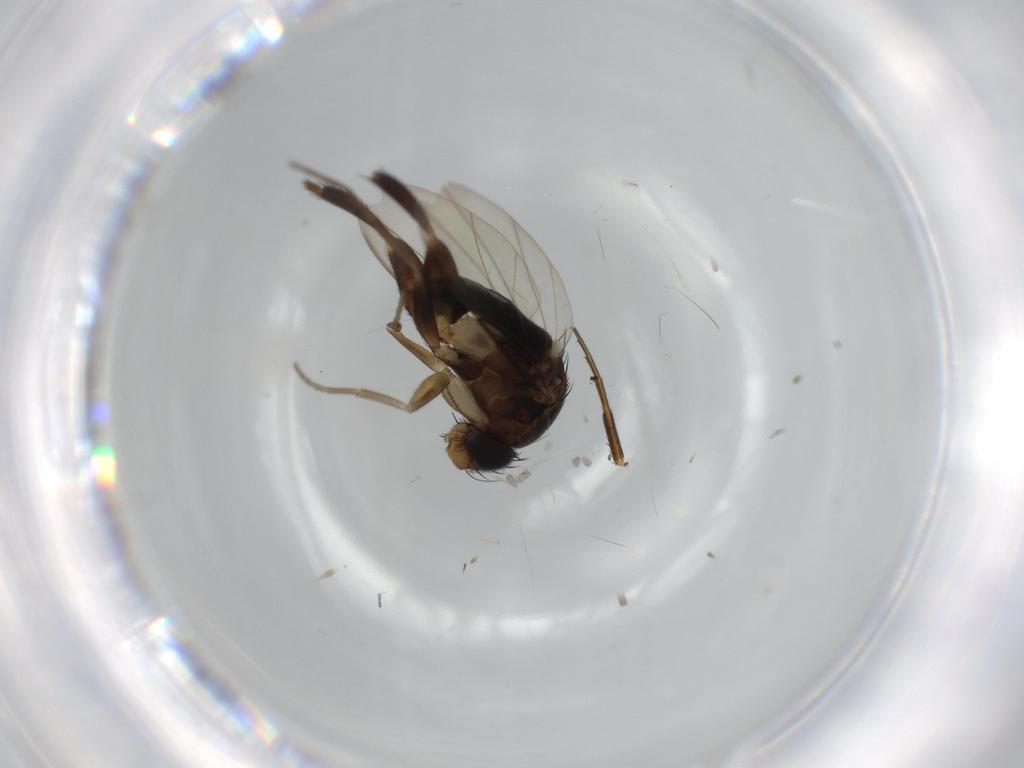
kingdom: Animalia
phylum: Arthropoda
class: Insecta
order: Diptera
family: Phoridae
